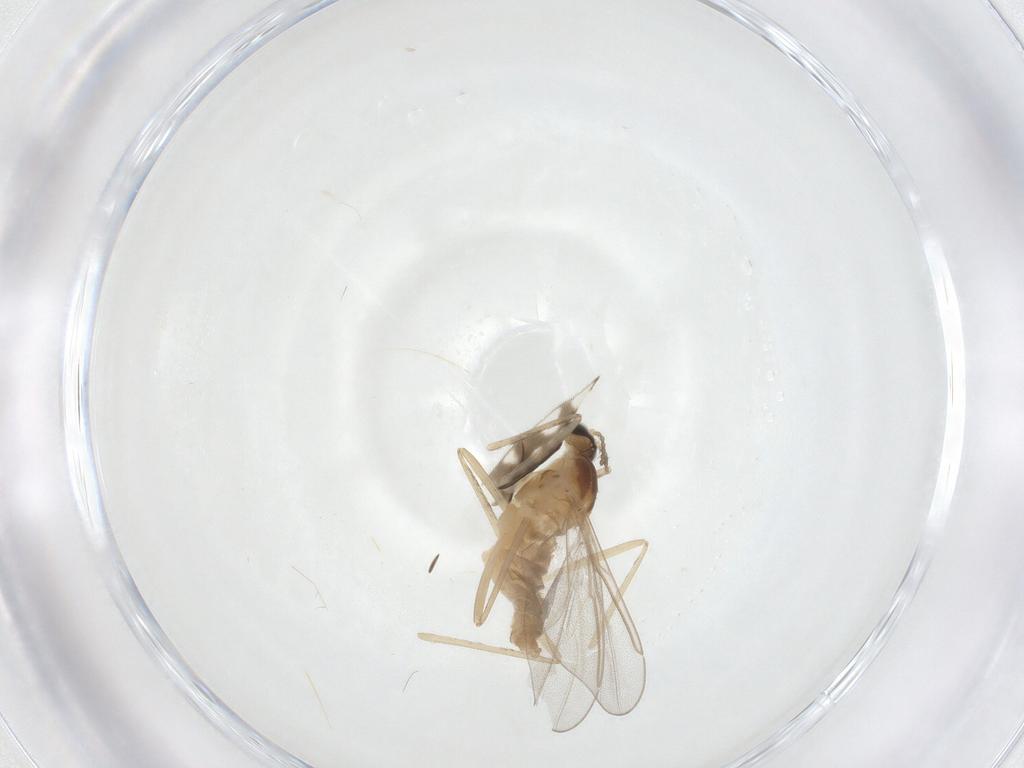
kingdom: Animalia
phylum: Arthropoda
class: Insecta
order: Diptera
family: Cecidomyiidae
